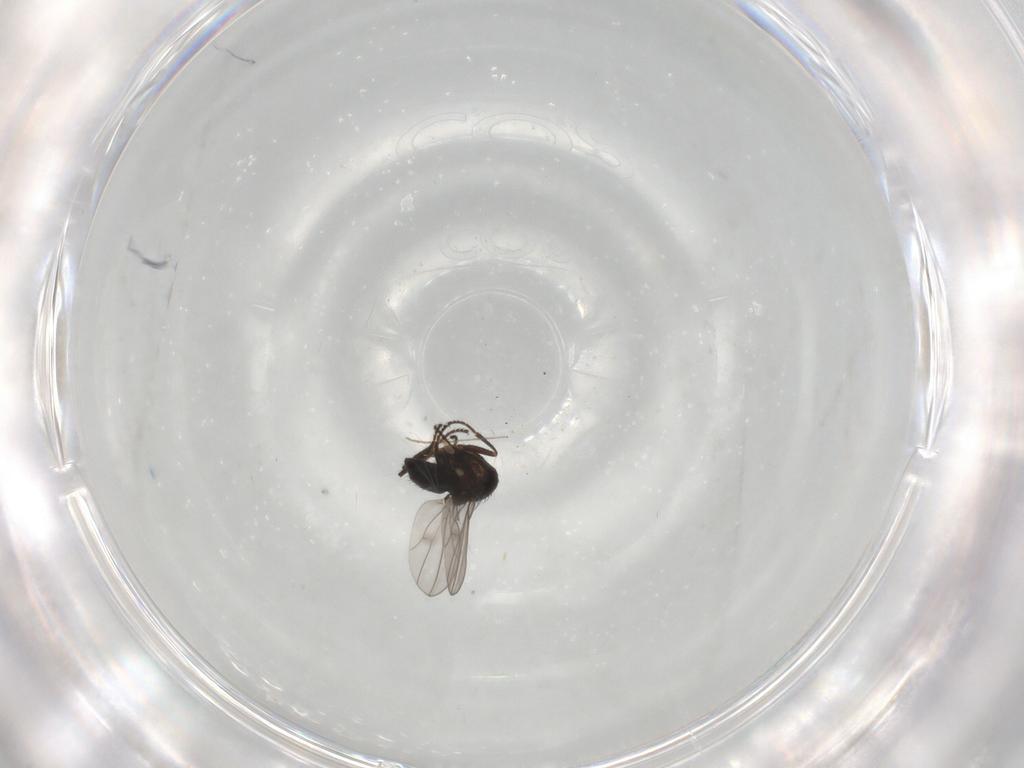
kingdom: Animalia
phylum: Arthropoda
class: Insecta
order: Diptera
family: Ephydridae
